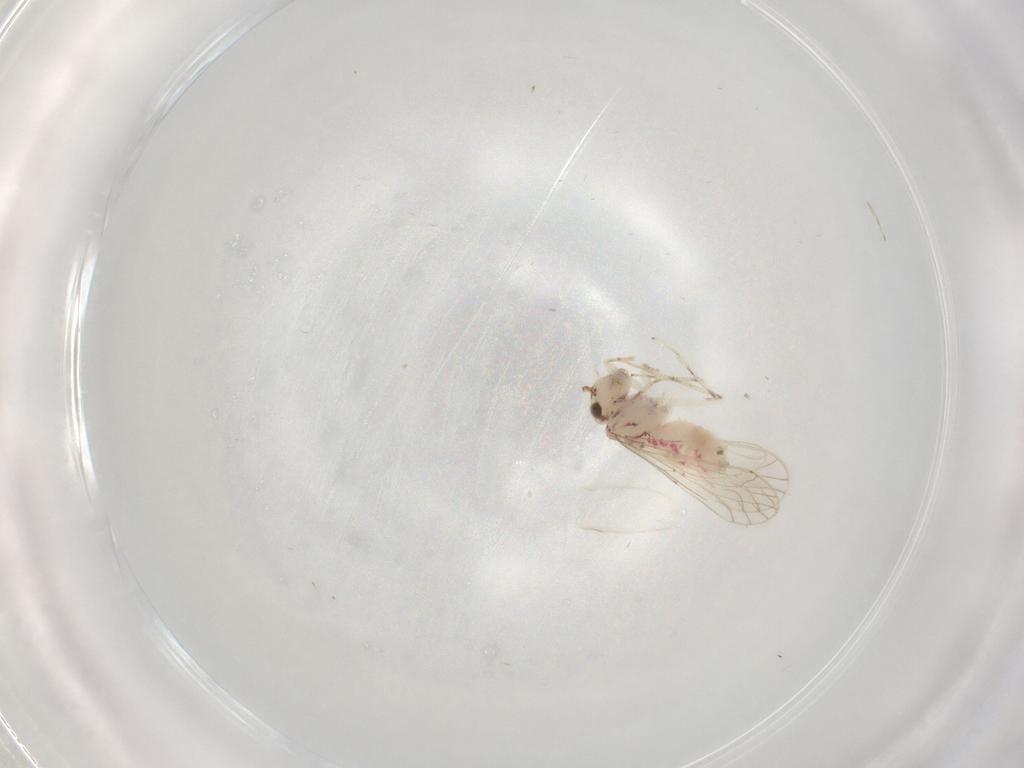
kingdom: Animalia
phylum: Arthropoda
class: Insecta
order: Psocodea
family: Caeciliusidae
